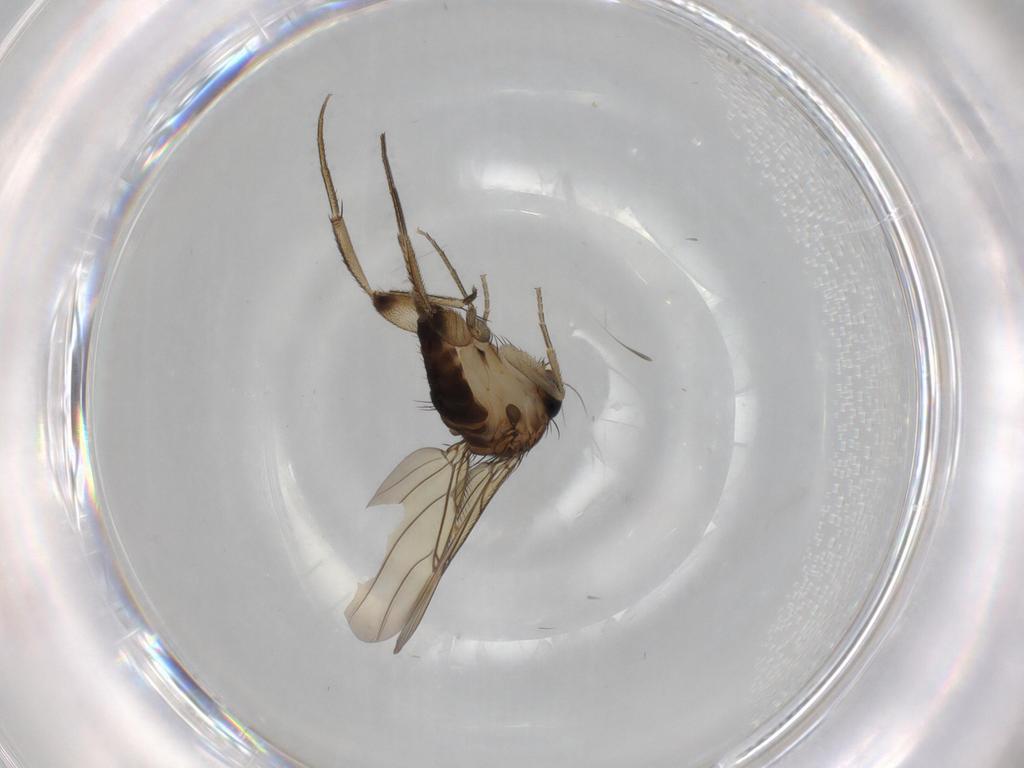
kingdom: Animalia
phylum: Arthropoda
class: Insecta
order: Diptera
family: Phoridae
